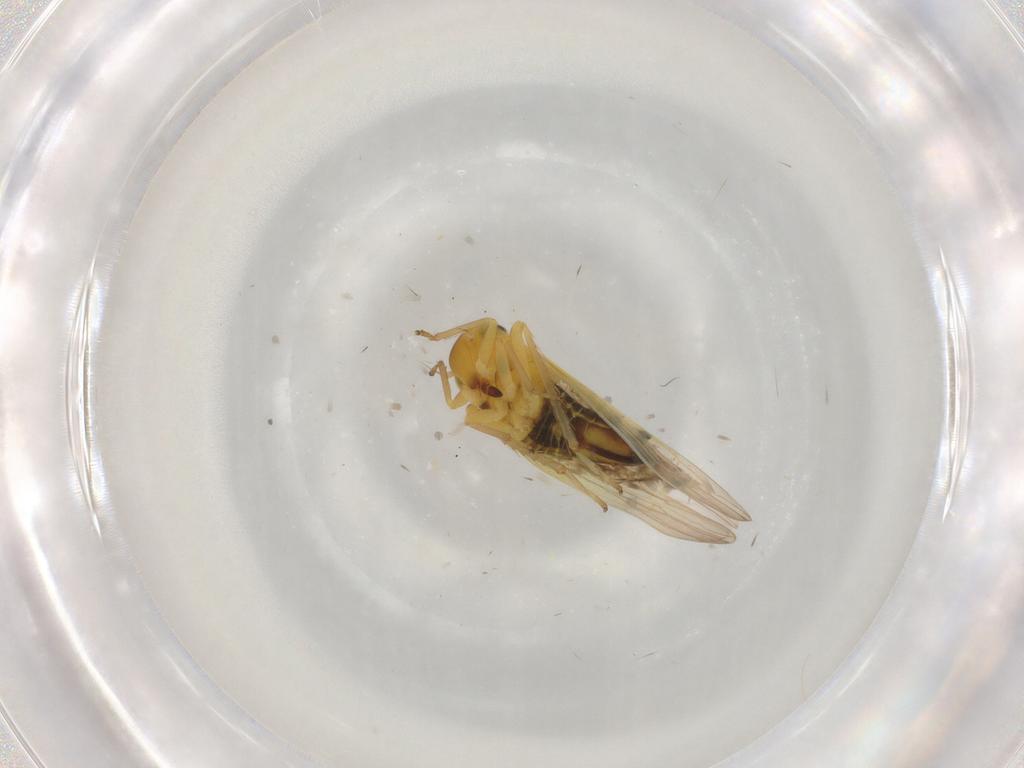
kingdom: Animalia
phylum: Arthropoda
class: Insecta
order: Hemiptera
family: Cicadellidae
